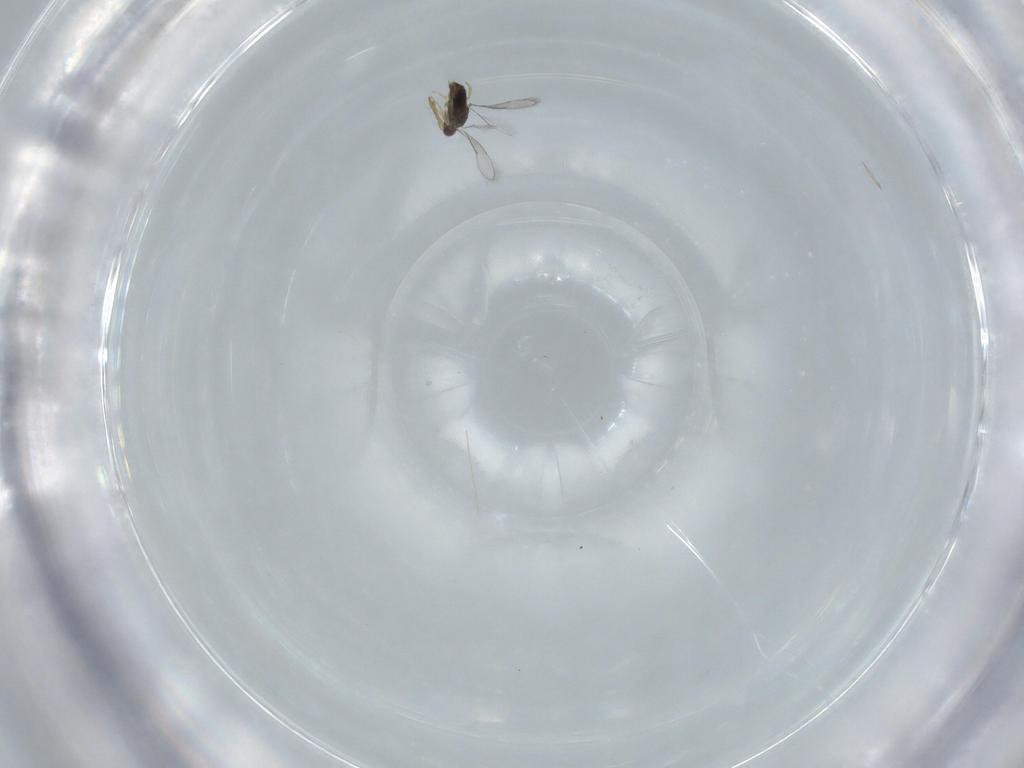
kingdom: Animalia
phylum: Arthropoda
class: Insecta
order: Hymenoptera
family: Bethylidae
